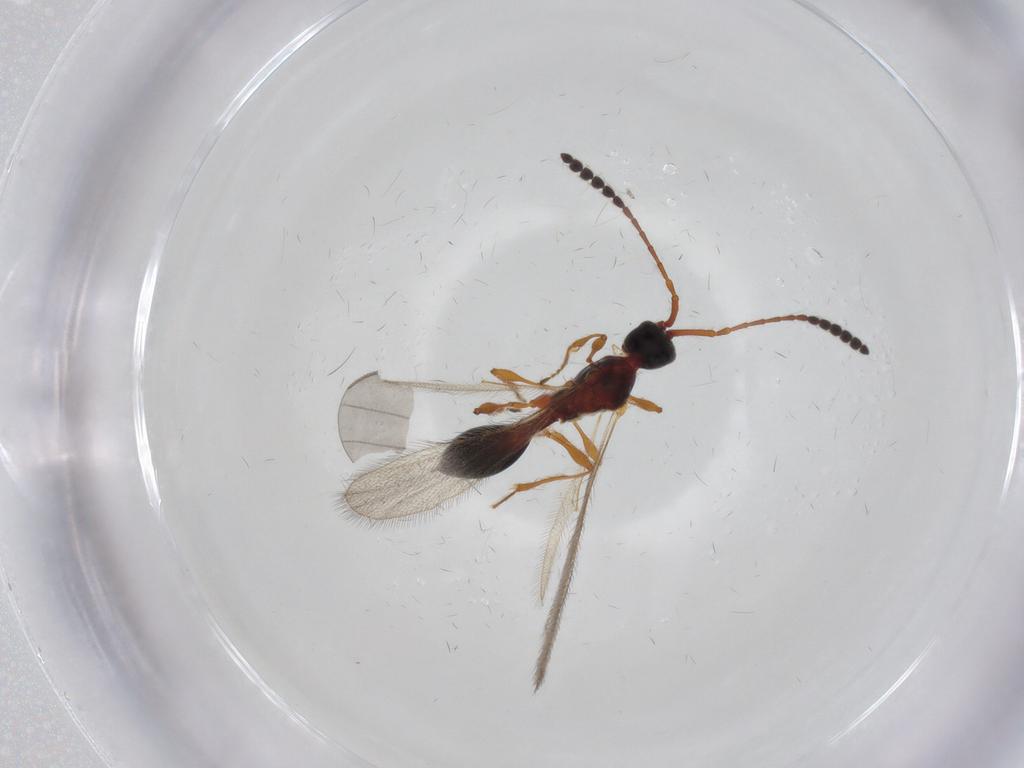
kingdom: Animalia
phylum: Arthropoda
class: Insecta
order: Hymenoptera
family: Diapriidae
